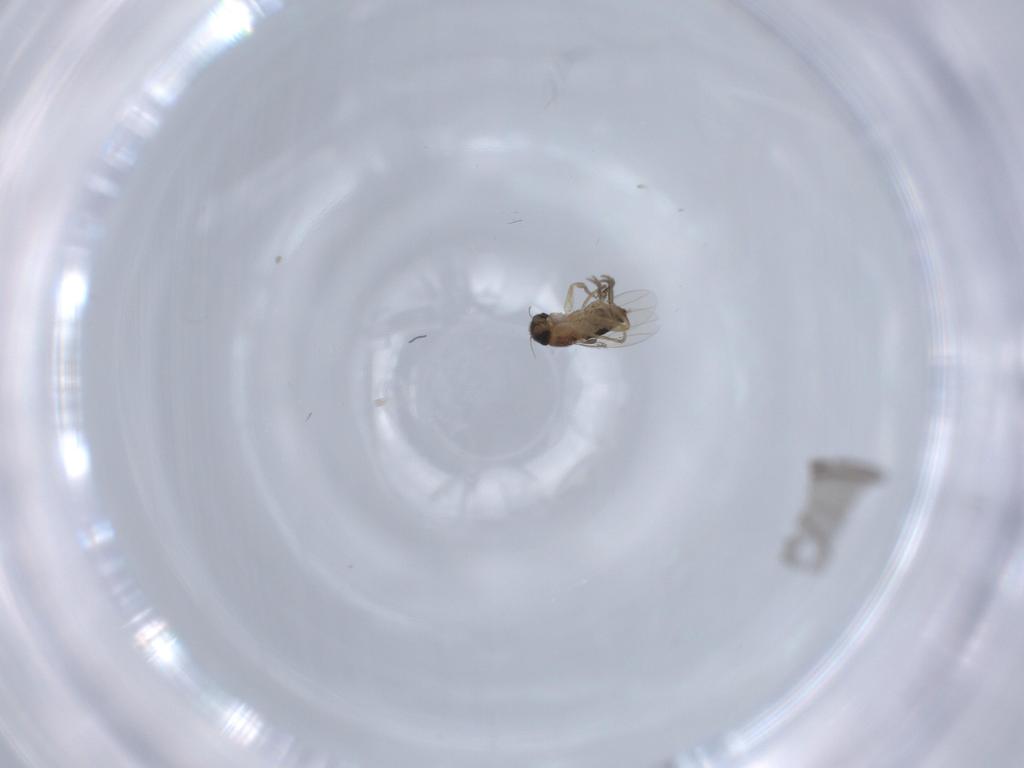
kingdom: Animalia
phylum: Arthropoda
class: Insecta
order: Diptera
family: Phoridae
